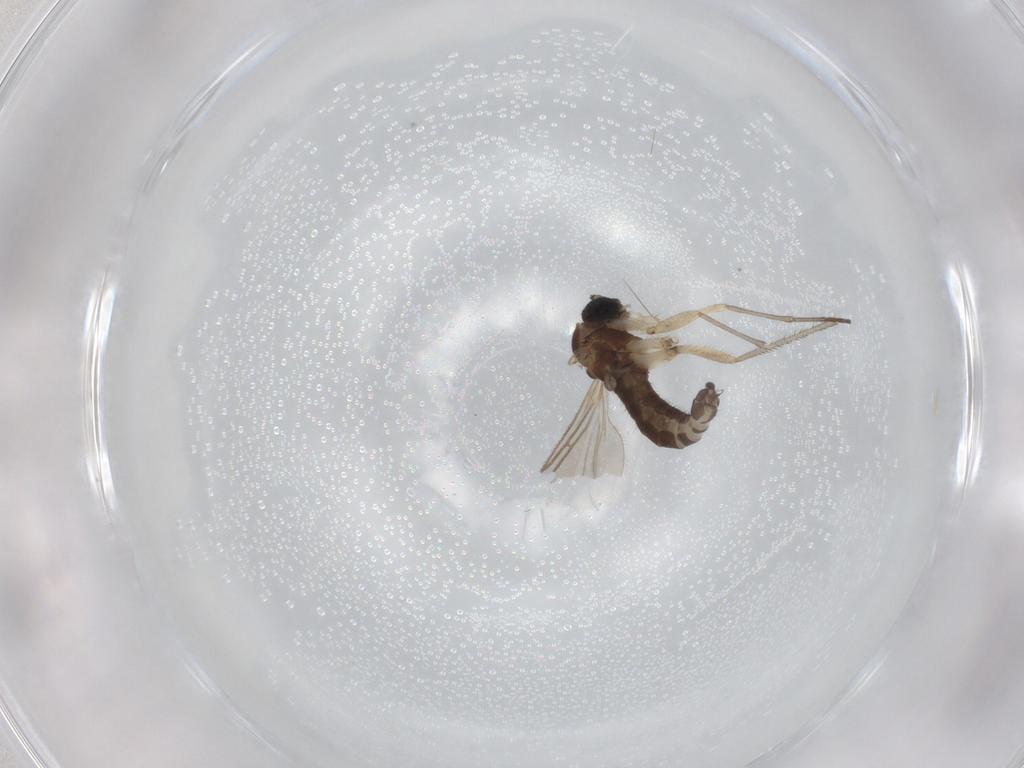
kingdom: Animalia
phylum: Arthropoda
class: Insecta
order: Diptera
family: Sciaridae
